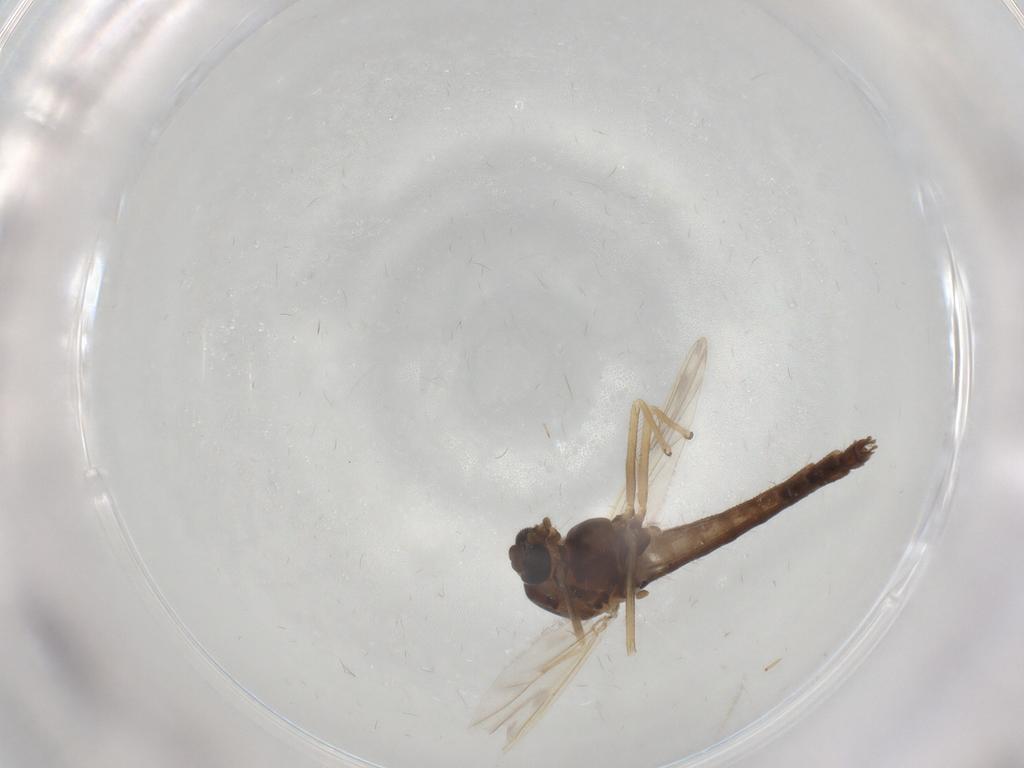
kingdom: Animalia
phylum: Arthropoda
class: Insecta
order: Diptera
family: Chironomidae
